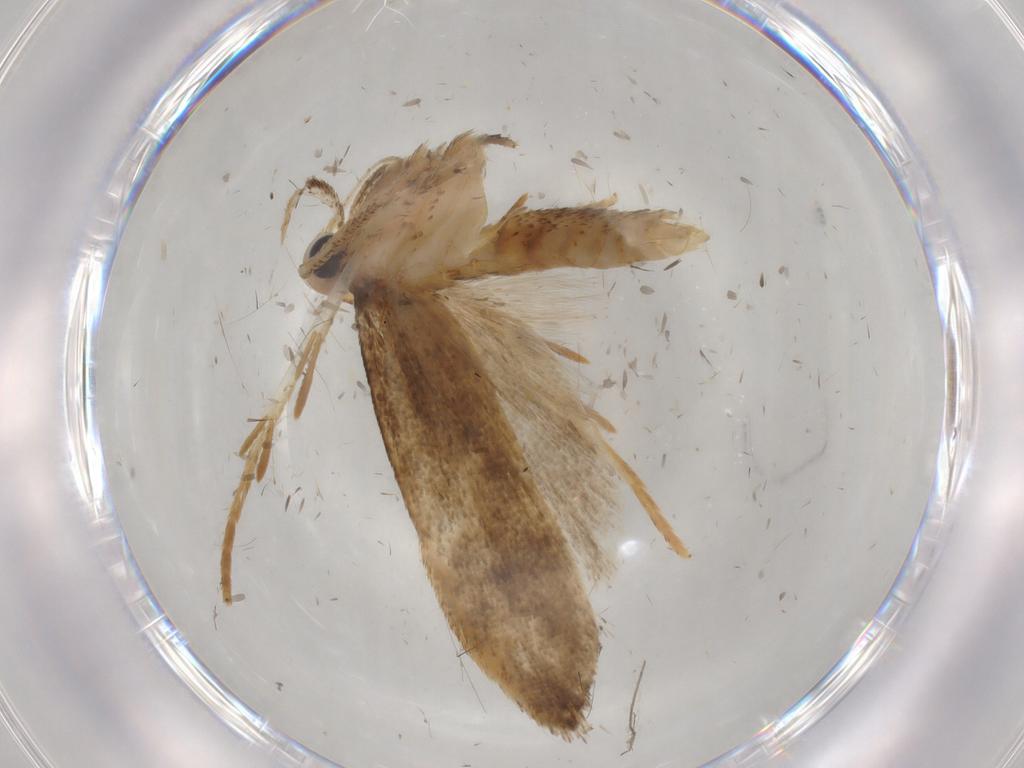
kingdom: Animalia
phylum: Arthropoda
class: Insecta
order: Lepidoptera
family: Autostichidae
